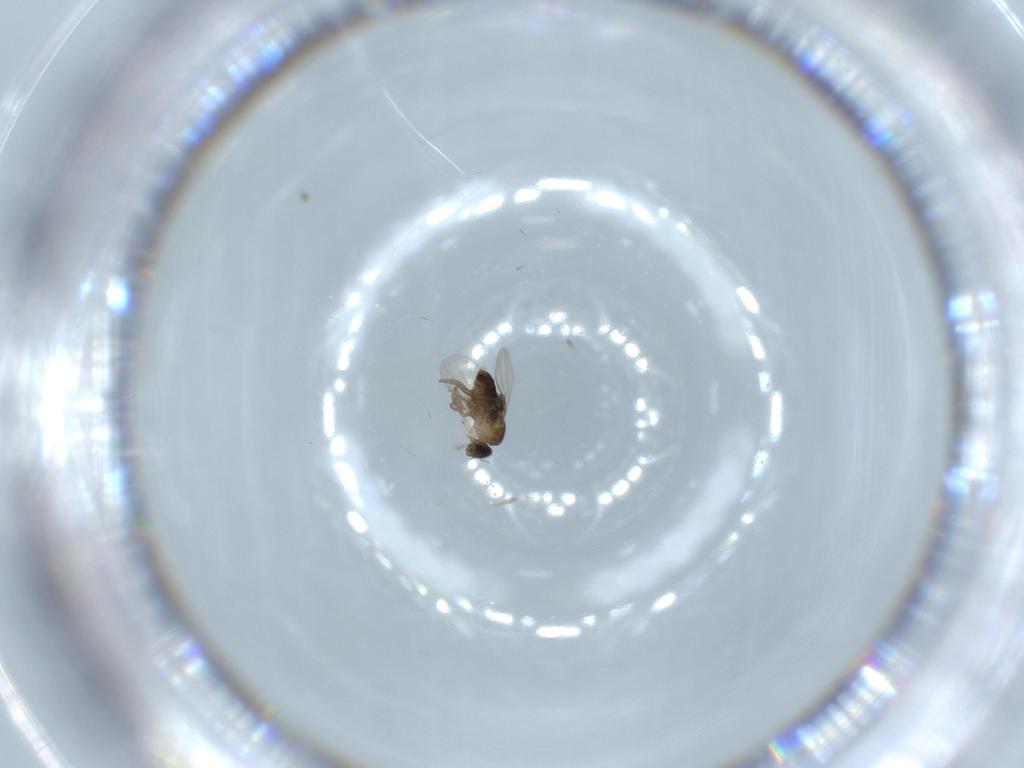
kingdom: Animalia
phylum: Arthropoda
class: Insecta
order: Diptera
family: Phoridae
